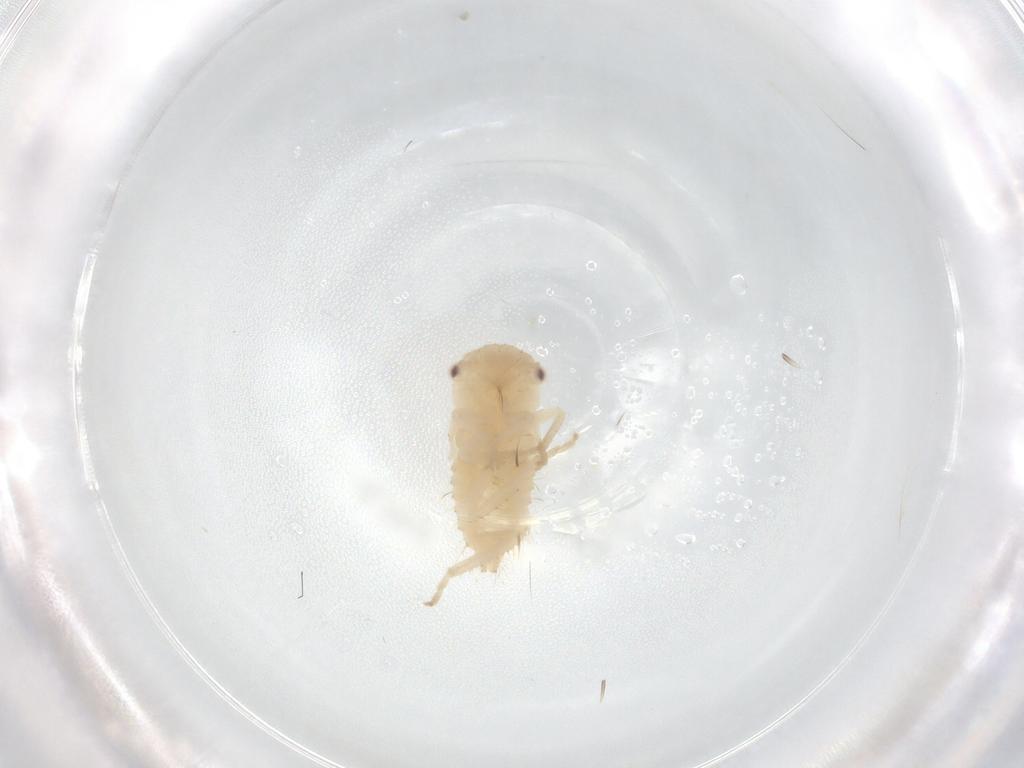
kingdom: Animalia
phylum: Arthropoda
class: Insecta
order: Hemiptera
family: Cicadellidae
